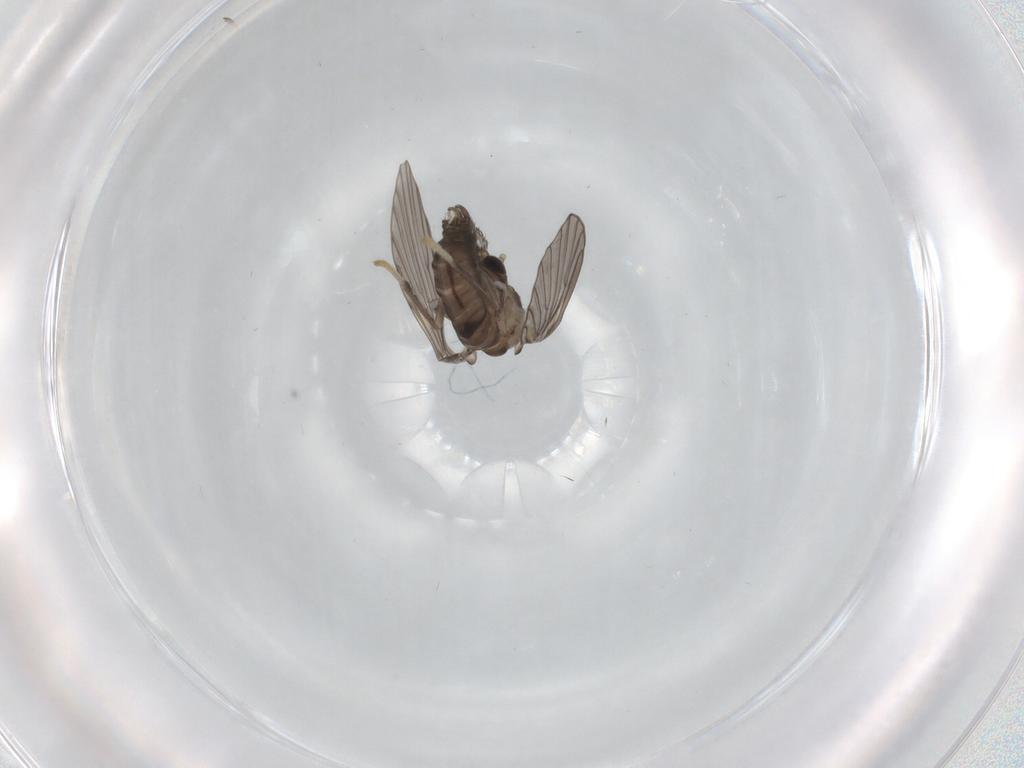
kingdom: Animalia
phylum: Arthropoda
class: Insecta
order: Diptera
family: Psychodidae
